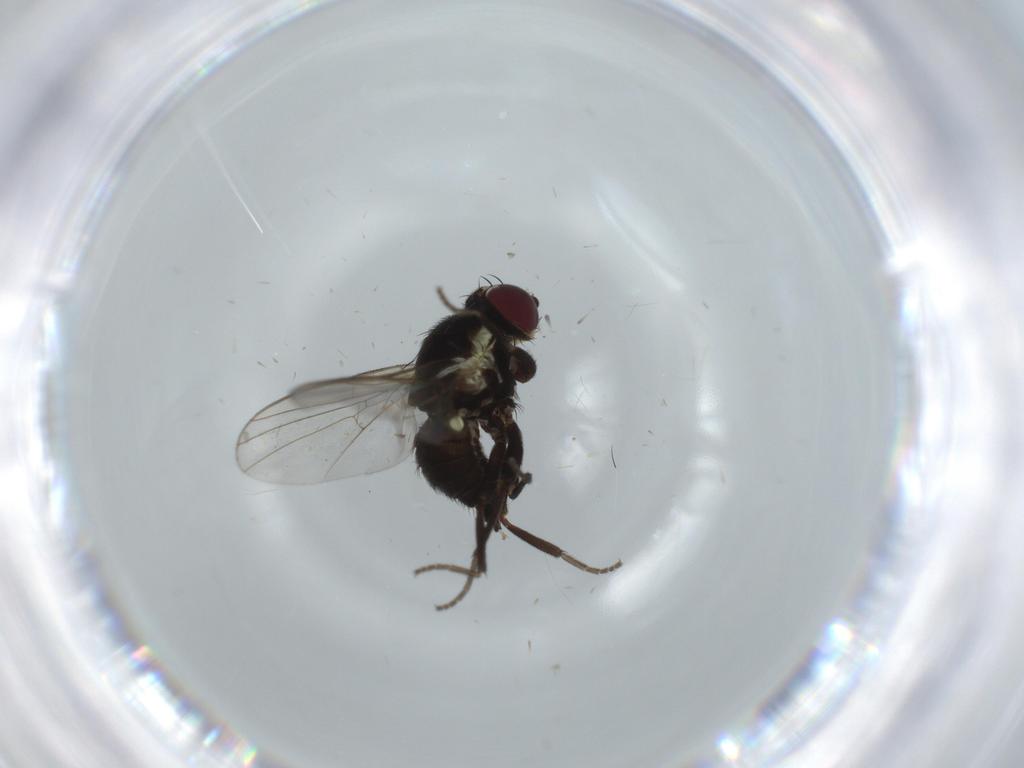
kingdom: Animalia
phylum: Arthropoda
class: Insecta
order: Diptera
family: Agromyzidae
